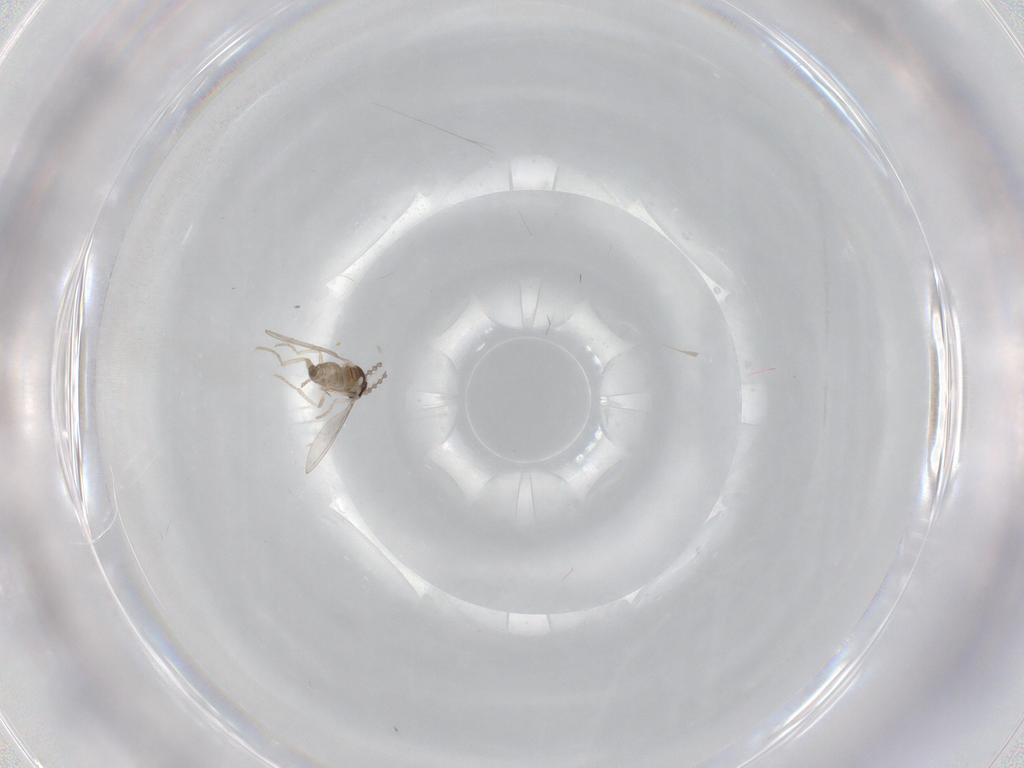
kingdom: Animalia
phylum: Arthropoda
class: Insecta
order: Diptera
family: Cecidomyiidae
